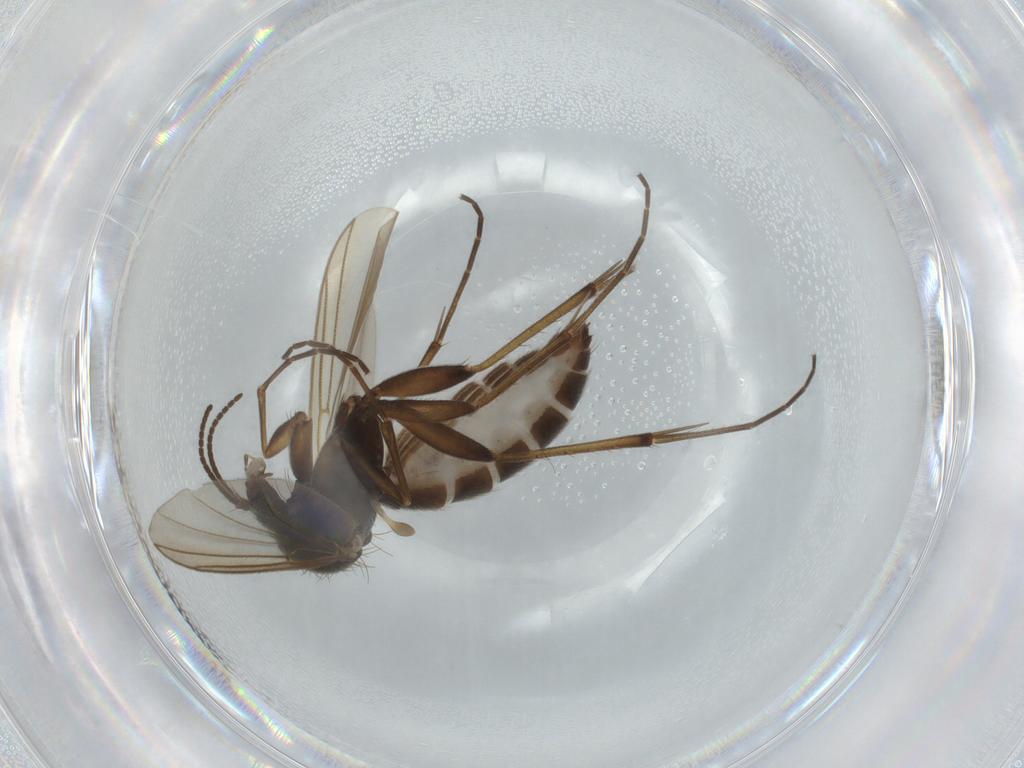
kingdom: Animalia
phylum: Arthropoda
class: Insecta
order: Diptera
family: Mycetophilidae
